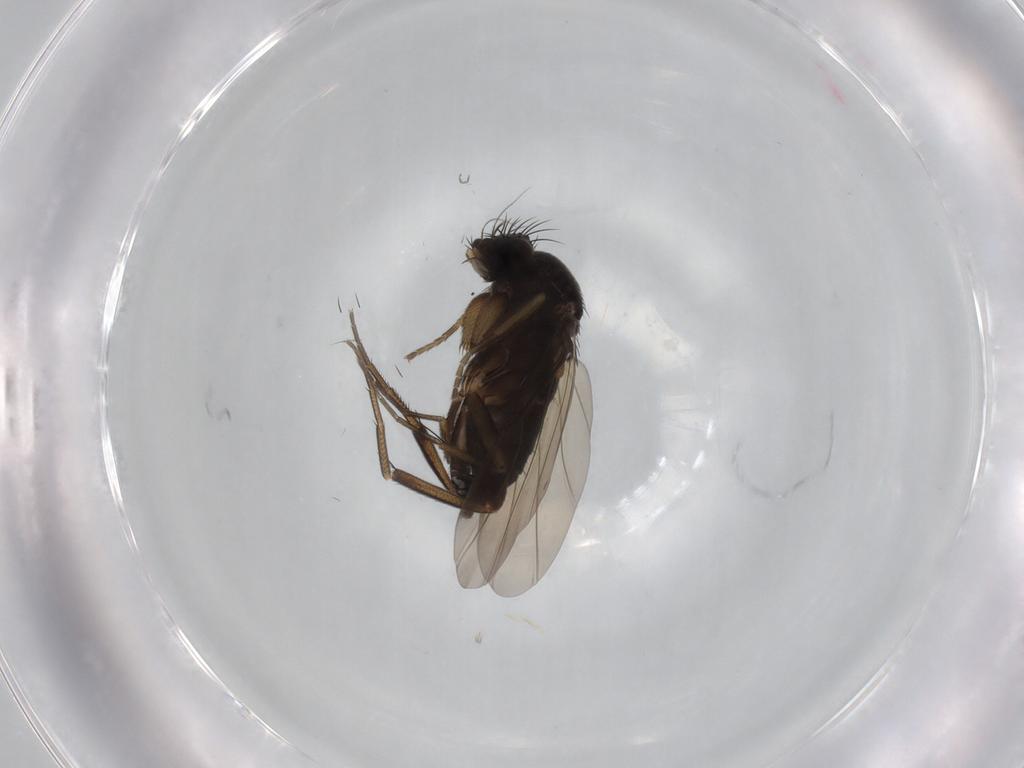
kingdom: Animalia
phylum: Arthropoda
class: Insecta
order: Diptera
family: Phoridae
